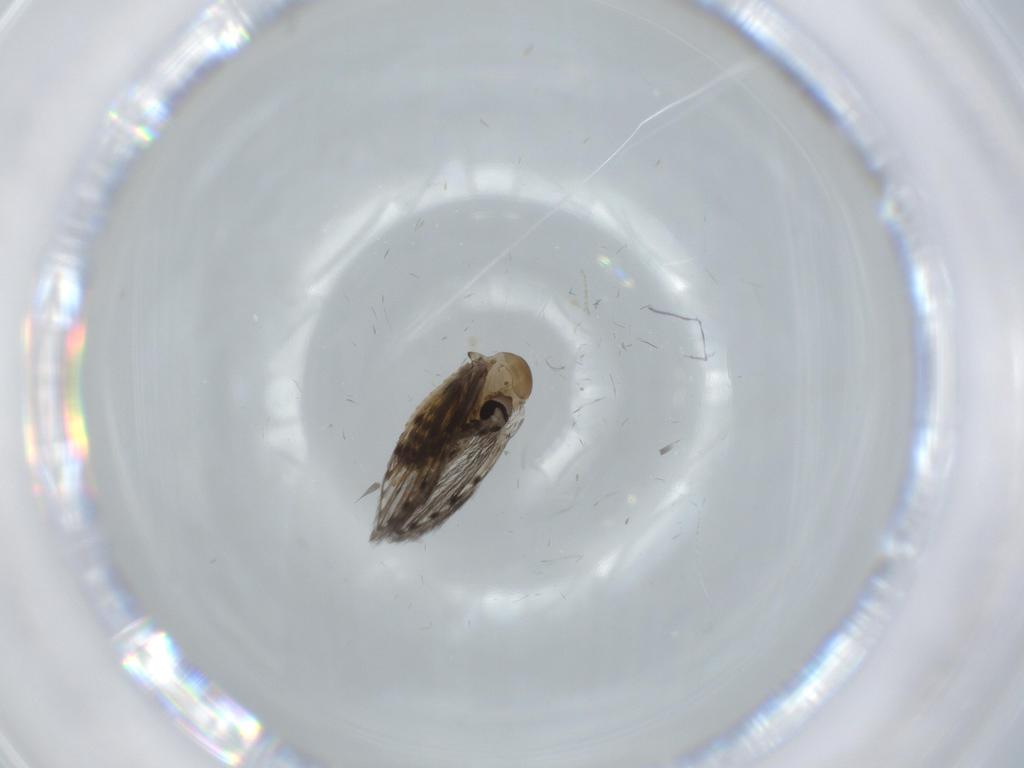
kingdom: Animalia
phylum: Arthropoda
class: Insecta
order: Diptera
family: Psychodidae
